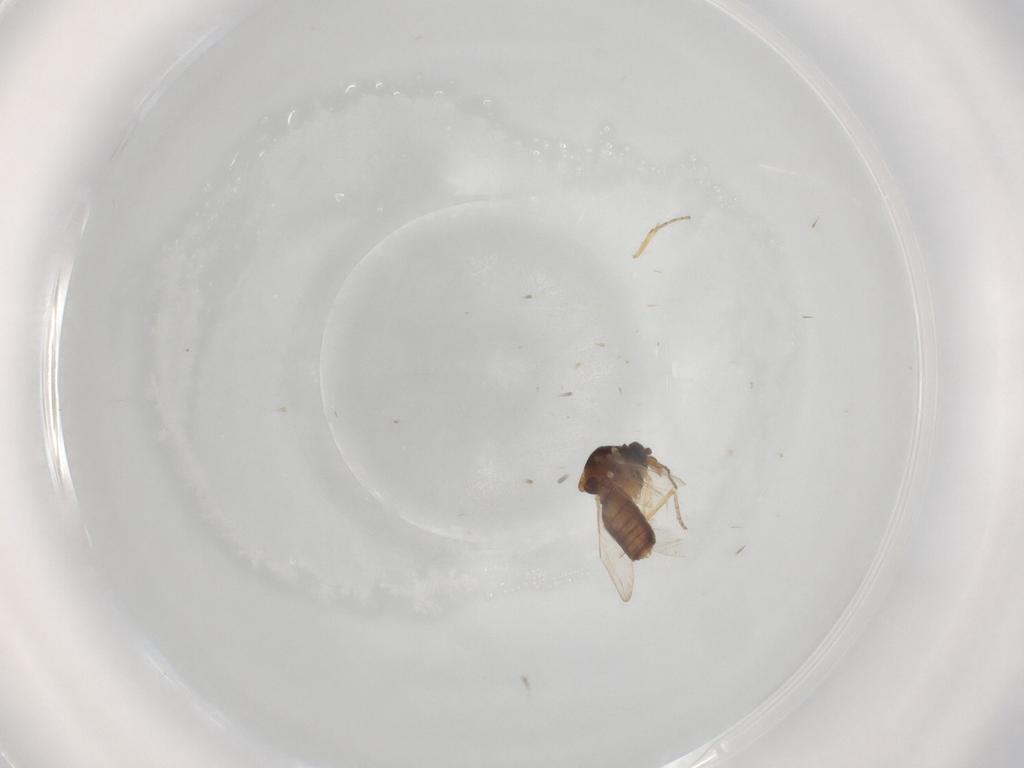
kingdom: Animalia
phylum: Arthropoda
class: Insecta
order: Diptera
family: Ceratopogonidae
